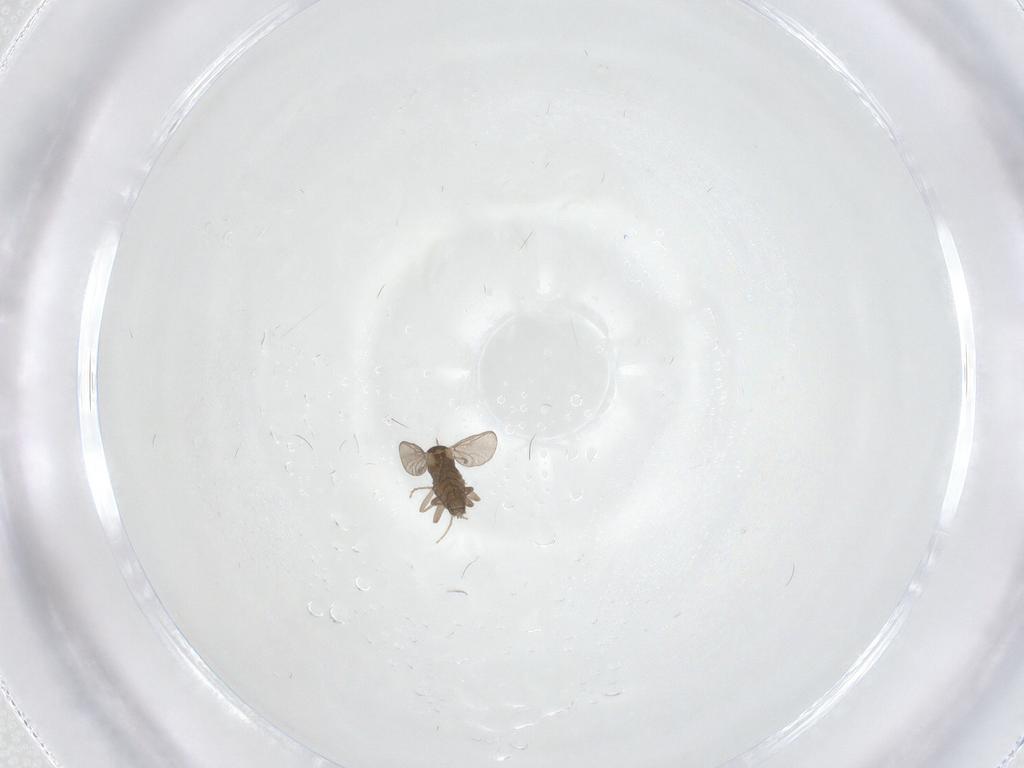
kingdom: Animalia
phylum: Arthropoda
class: Insecta
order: Diptera
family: Chironomidae
